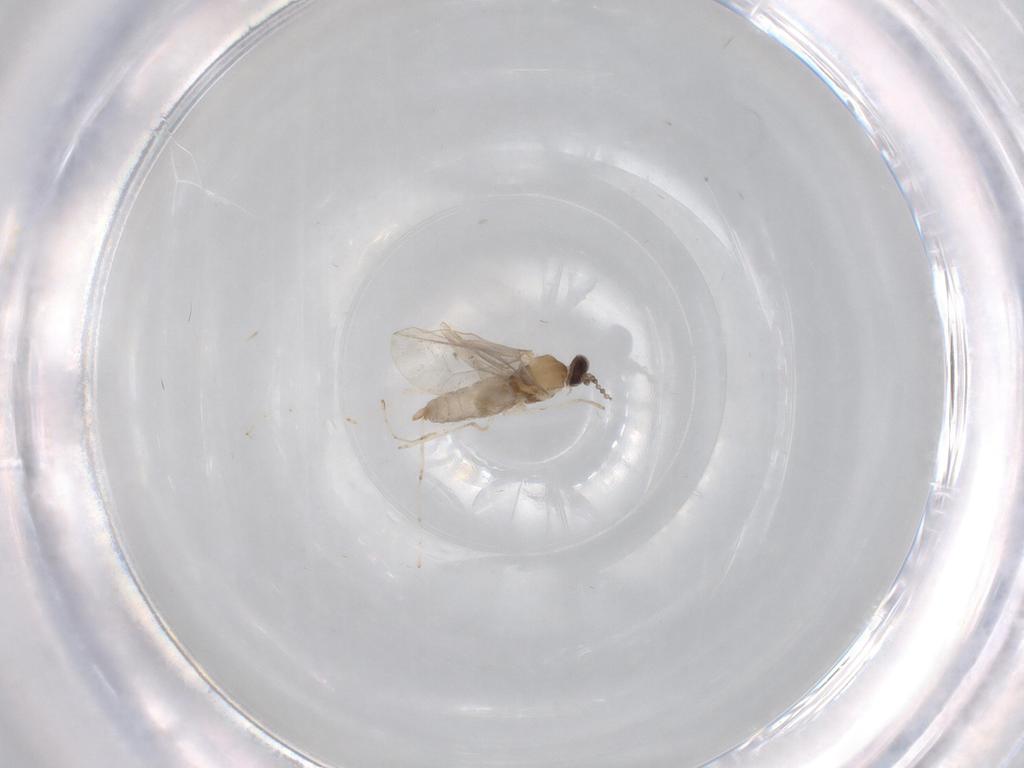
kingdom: Animalia
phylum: Arthropoda
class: Insecta
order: Diptera
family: Cecidomyiidae
